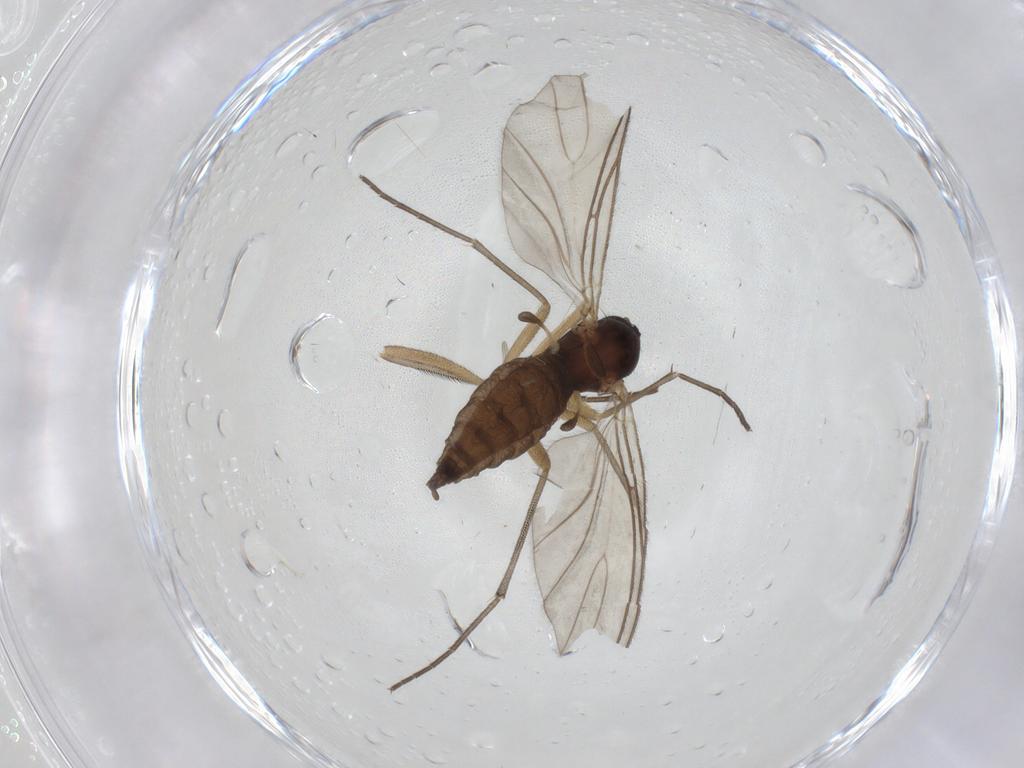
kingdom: Animalia
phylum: Arthropoda
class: Insecta
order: Diptera
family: Sciaridae
